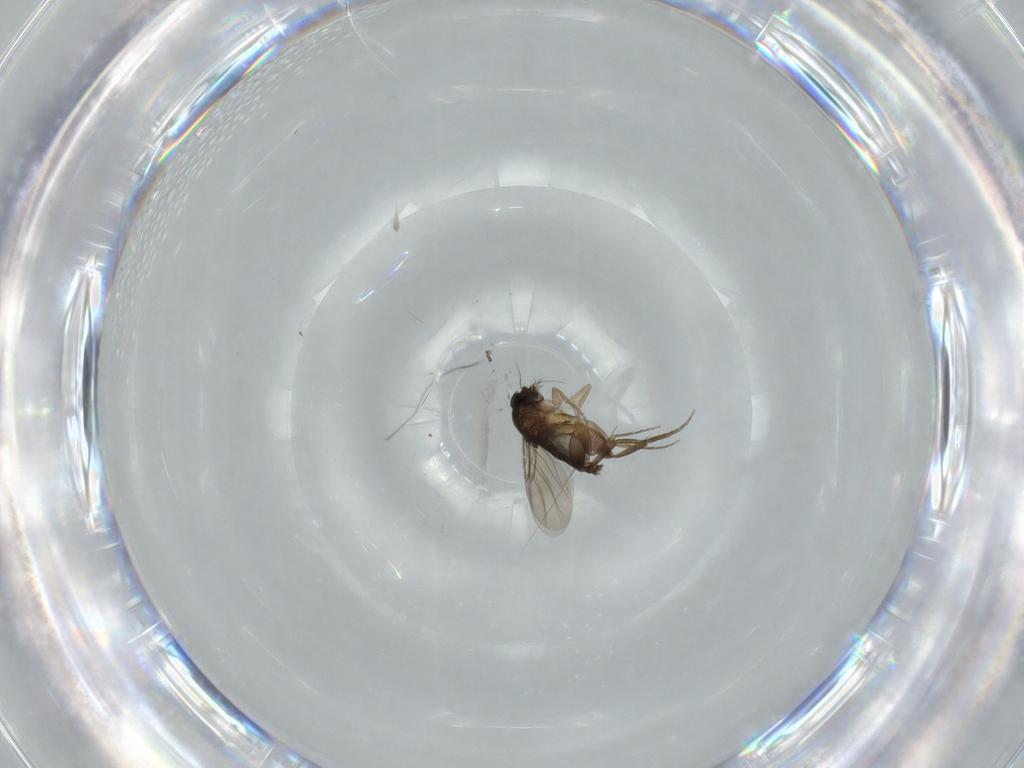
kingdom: Animalia
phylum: Arthropoda
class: Insecta
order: Diptera
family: Phoridae
